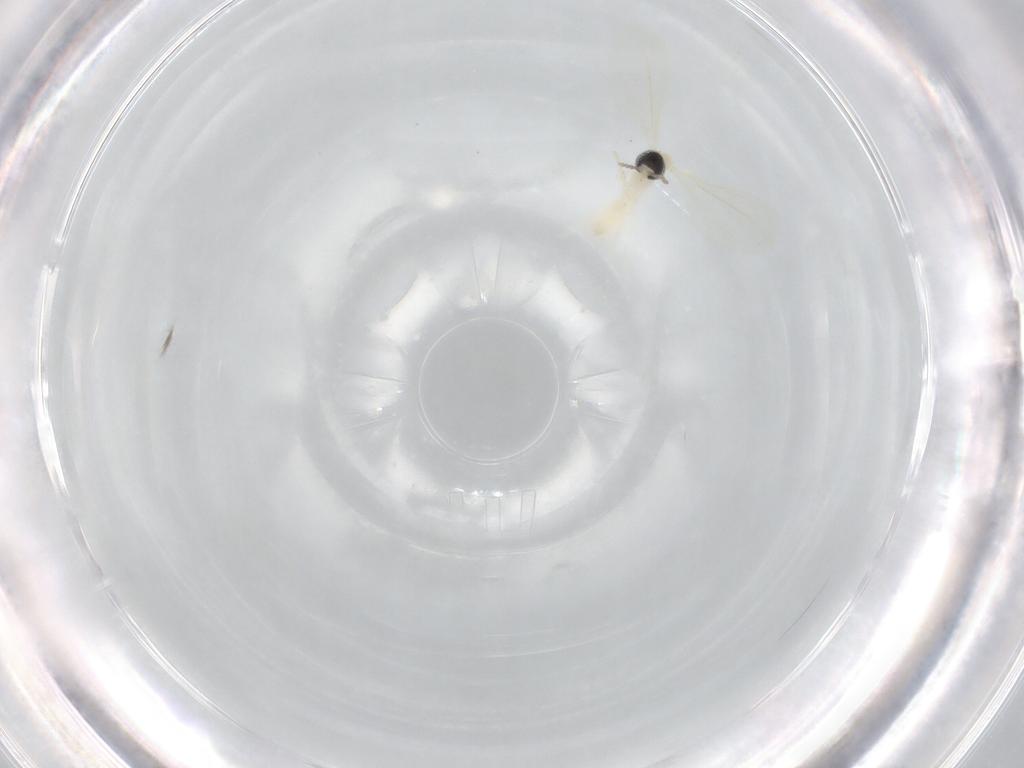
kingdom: Animalia
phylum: Arthropoda
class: Insecta
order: Diptera
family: Cecidomyiidae
